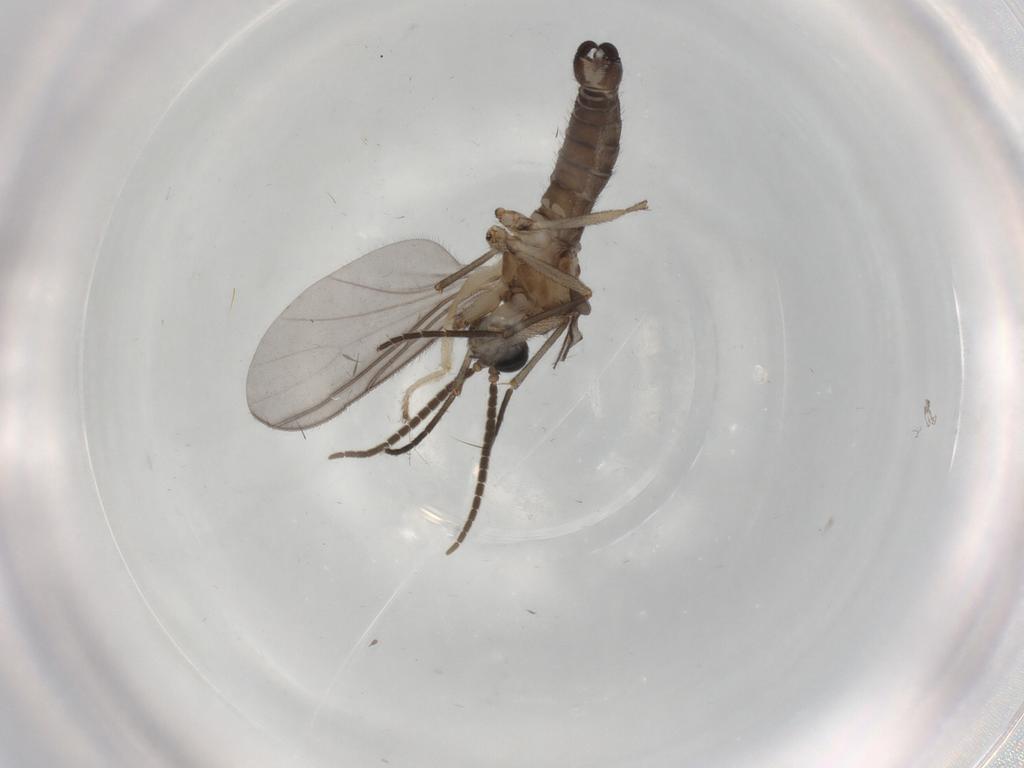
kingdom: Animalia
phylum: Arthropoda
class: Insecta
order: Diptera
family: Clusiidae
